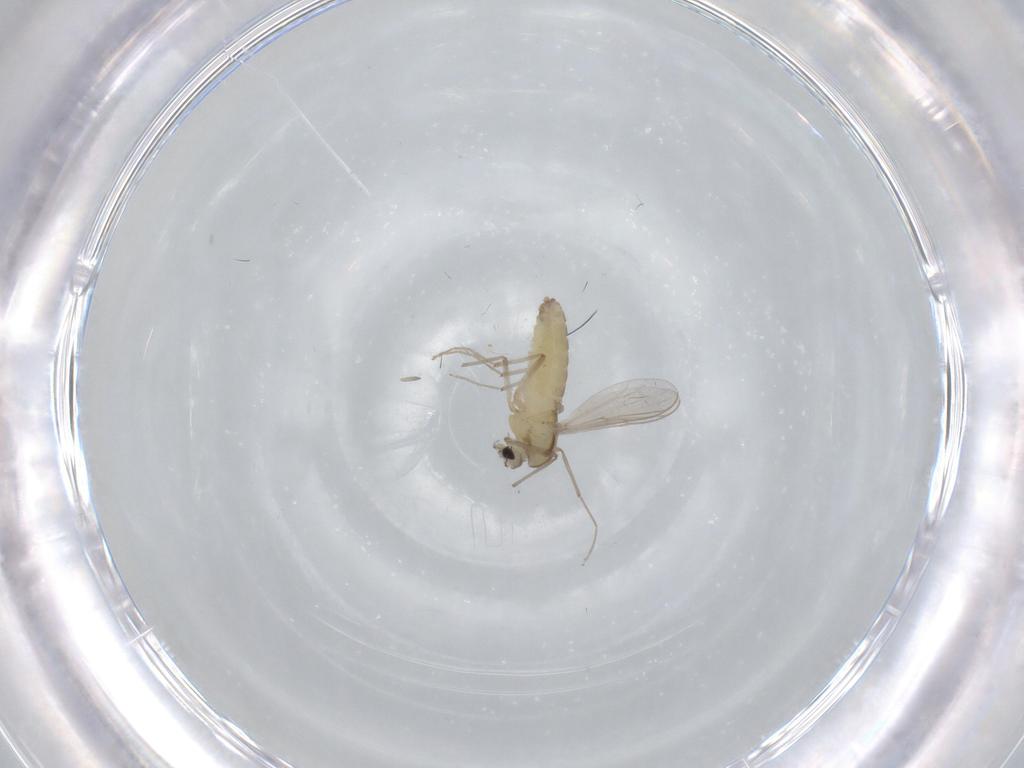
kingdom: Animalia
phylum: Arthropoda
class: Insecta
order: Diptera
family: Chironomidae
